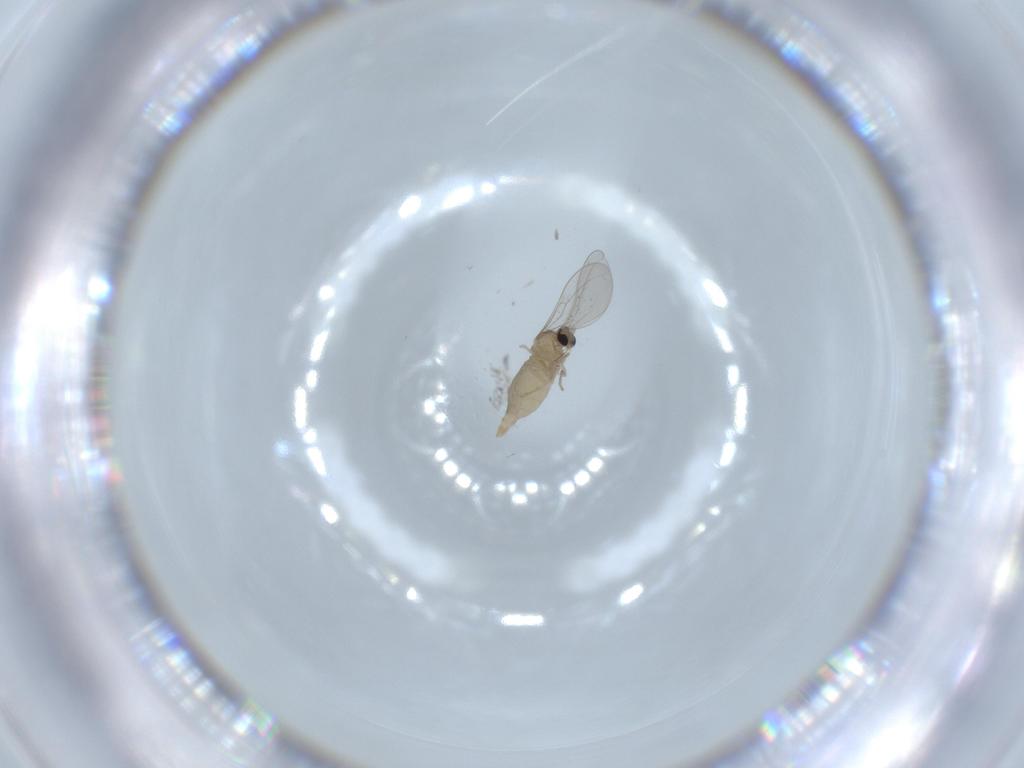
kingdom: Animalia
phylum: Arthropoda
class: Insecta
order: Diptera
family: Cecidomyiidae
